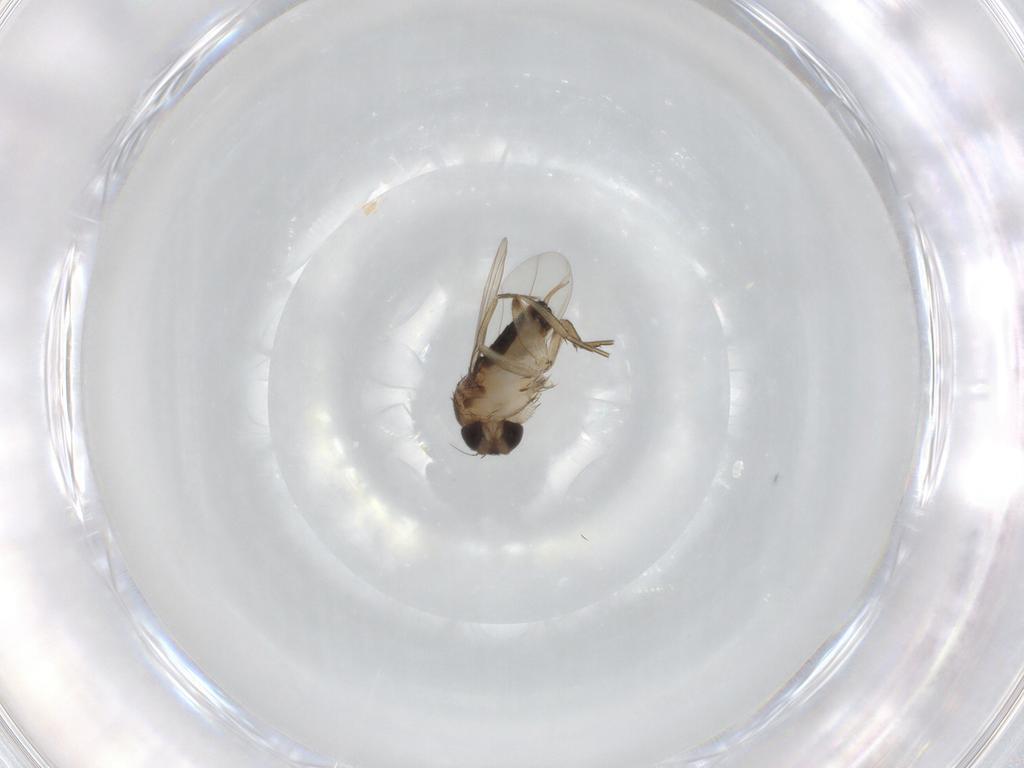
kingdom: Animalia
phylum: Arthropoda
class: Insecta
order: Diptera
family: Phoridae
